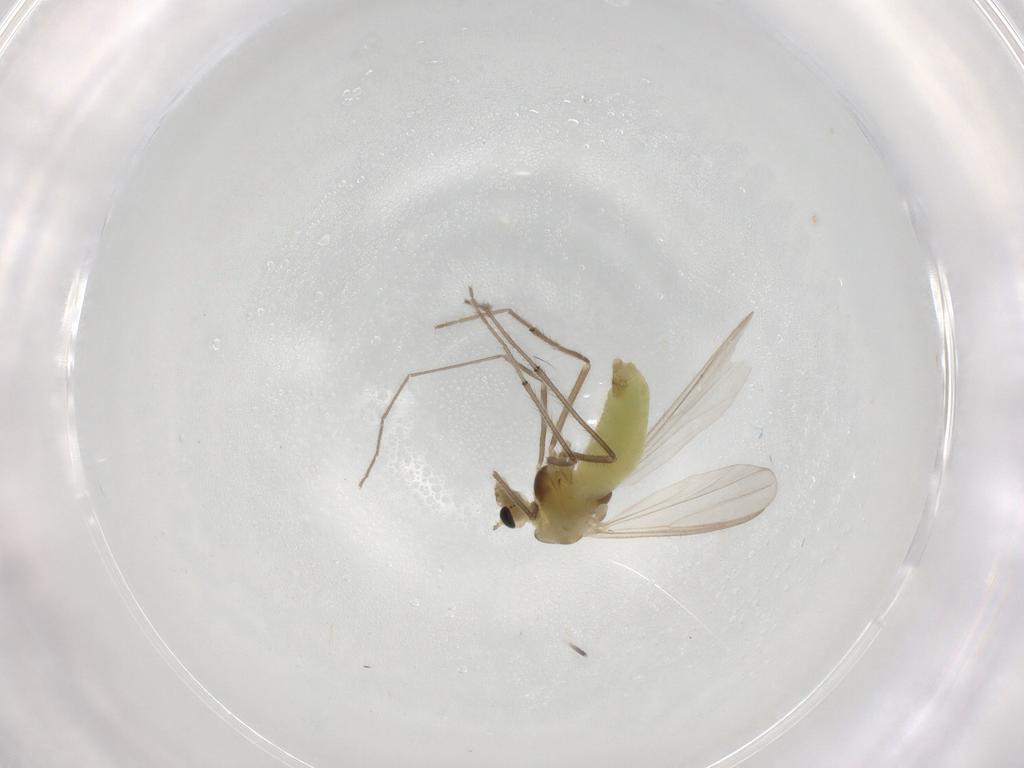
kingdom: Animalia
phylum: Arthropoda
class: Insecta
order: Diptera
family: Chironomidae
